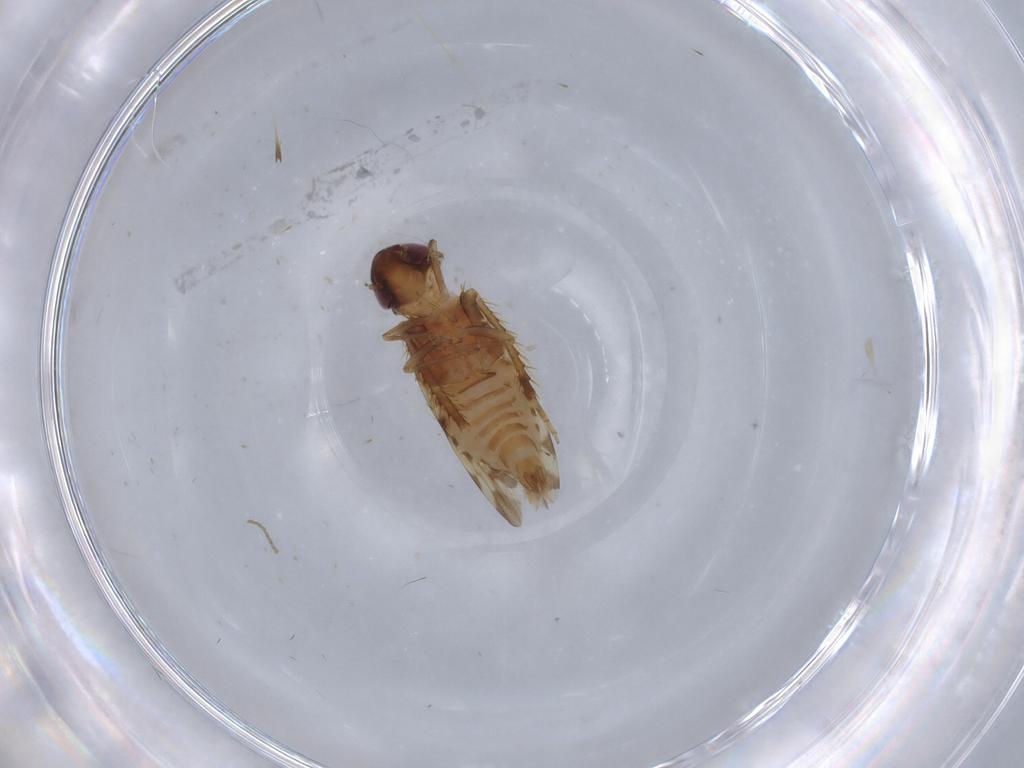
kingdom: Animalia
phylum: Arthropoda
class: Insecta
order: Hemiptera
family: Cicadellidae
